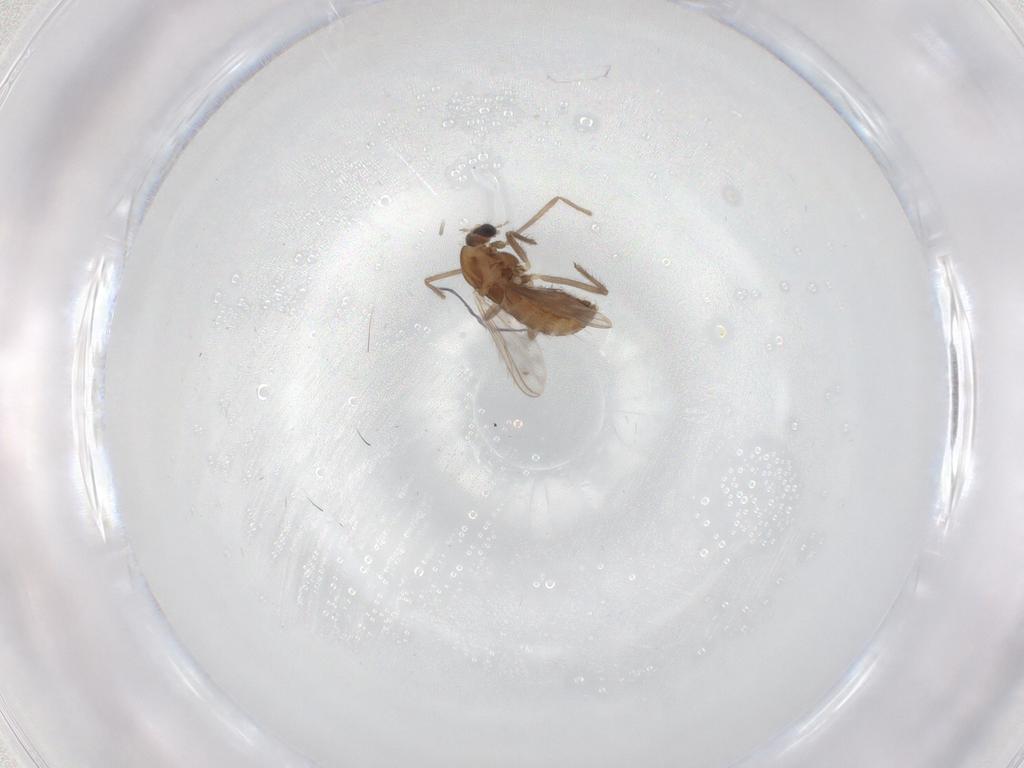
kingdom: Animalia
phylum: Arthropoda
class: Insecta
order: Diptera
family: Chironomidae
